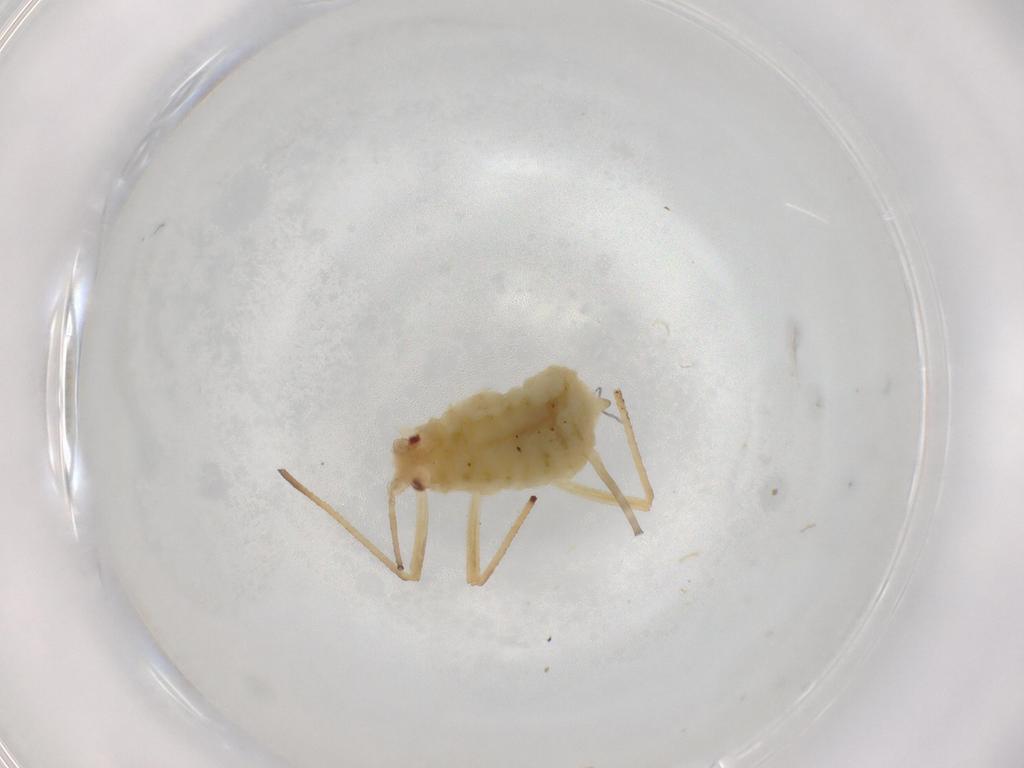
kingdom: Animalia
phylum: Arthropoda
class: Insecta
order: Hemiptera
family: Aphididae
